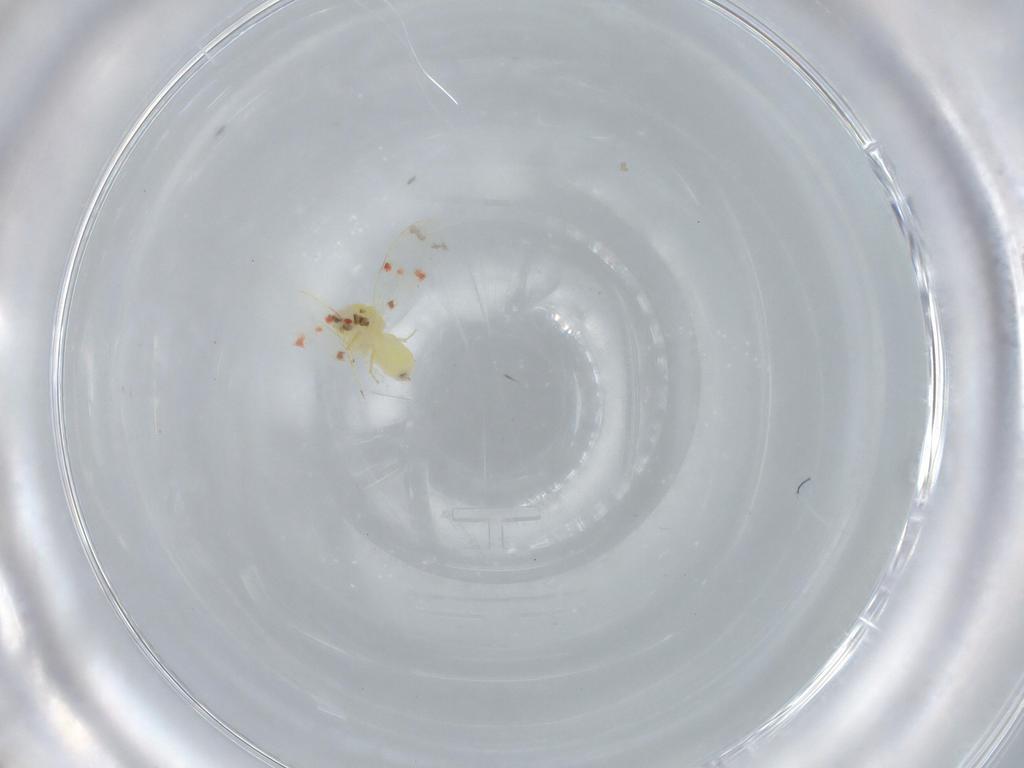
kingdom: Animalia
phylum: Arthropoda
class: Insecta
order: Hemiptera
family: Aleyrodidae
